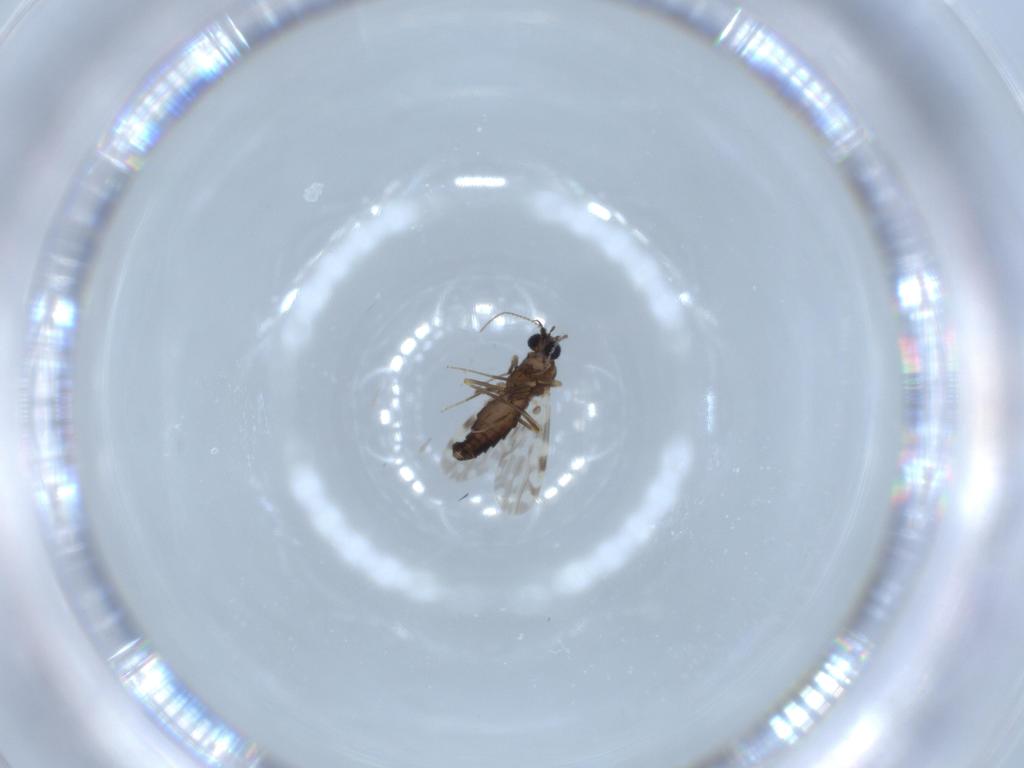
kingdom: Animalia
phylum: Arthropoda
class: Insecta
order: Diptera
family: Ceratopogonidae
